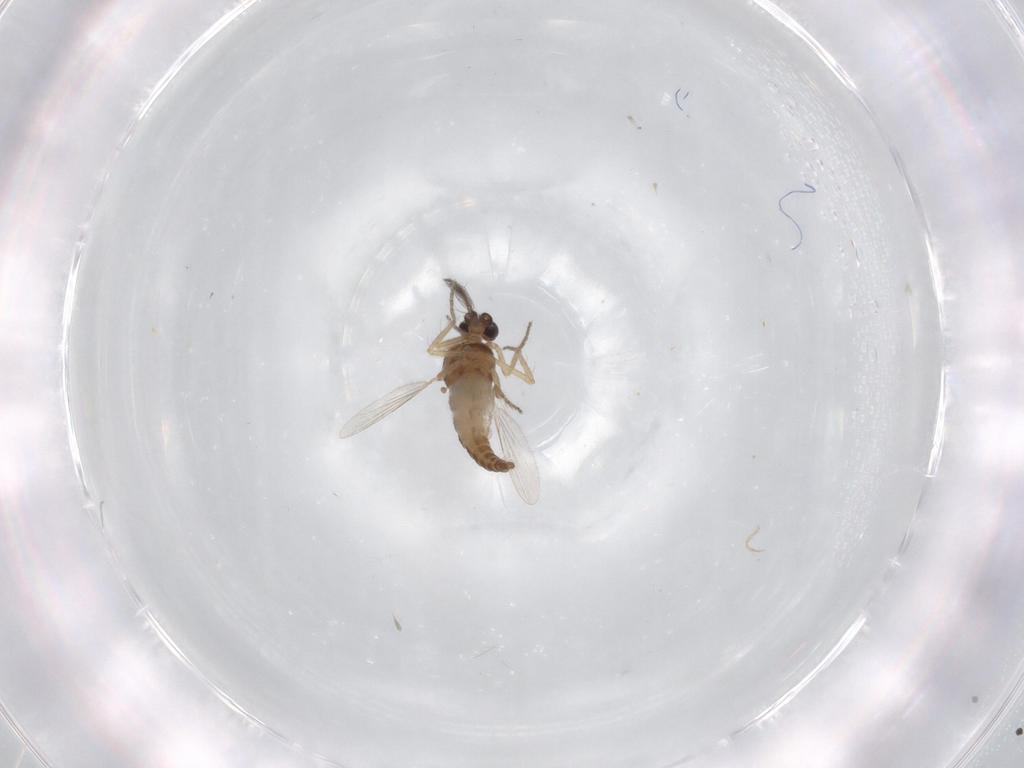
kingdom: Animalia
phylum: Arthropoda
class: Insecta
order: Diptera
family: Ceratopogonidae
